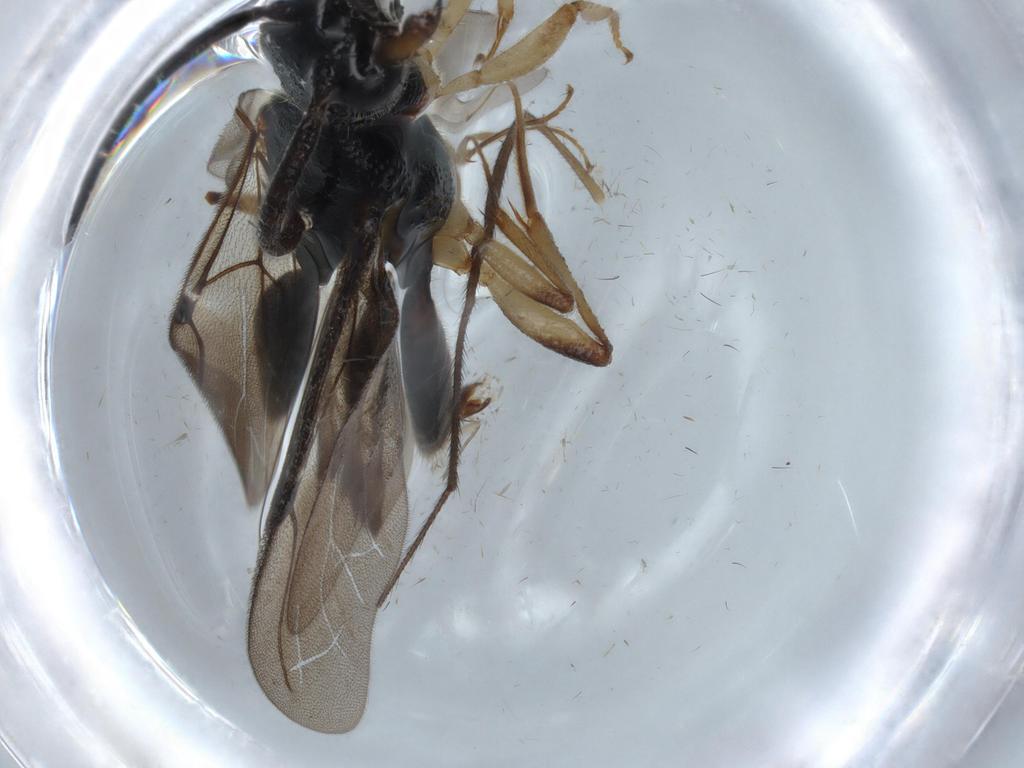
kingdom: Animalia
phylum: Arthropoda
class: Insecta
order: Hymenoptera
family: Bethylidae
